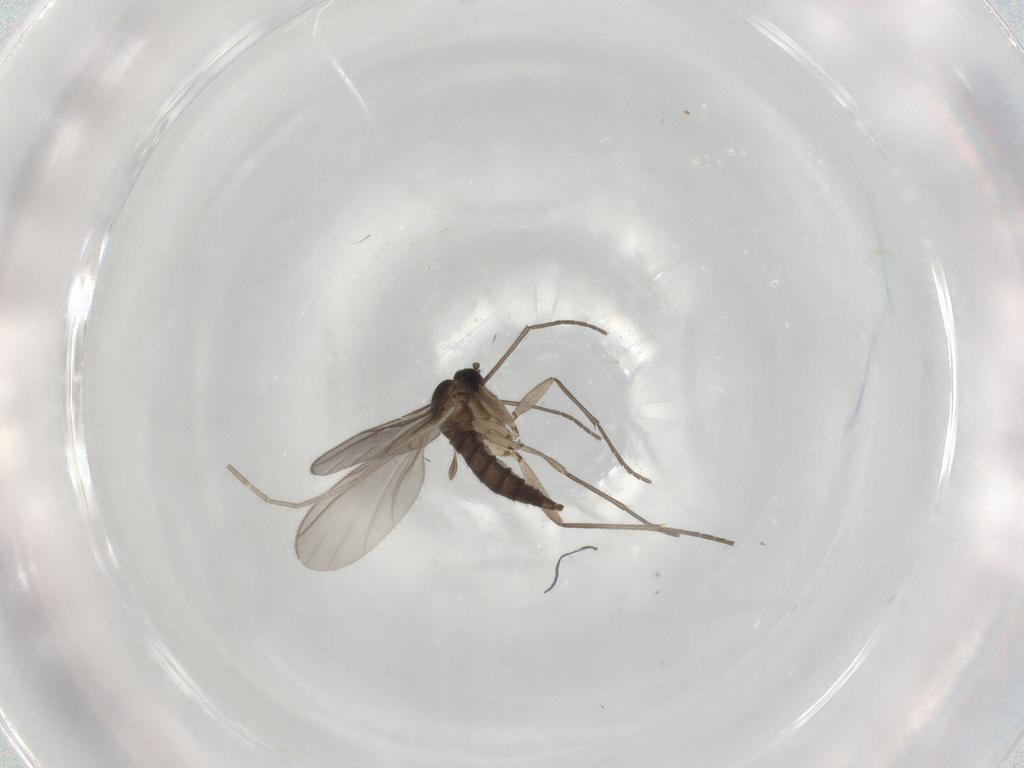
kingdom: Animalia
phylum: Arthropoda
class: Insecta
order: Diptera
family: Sciaridae
